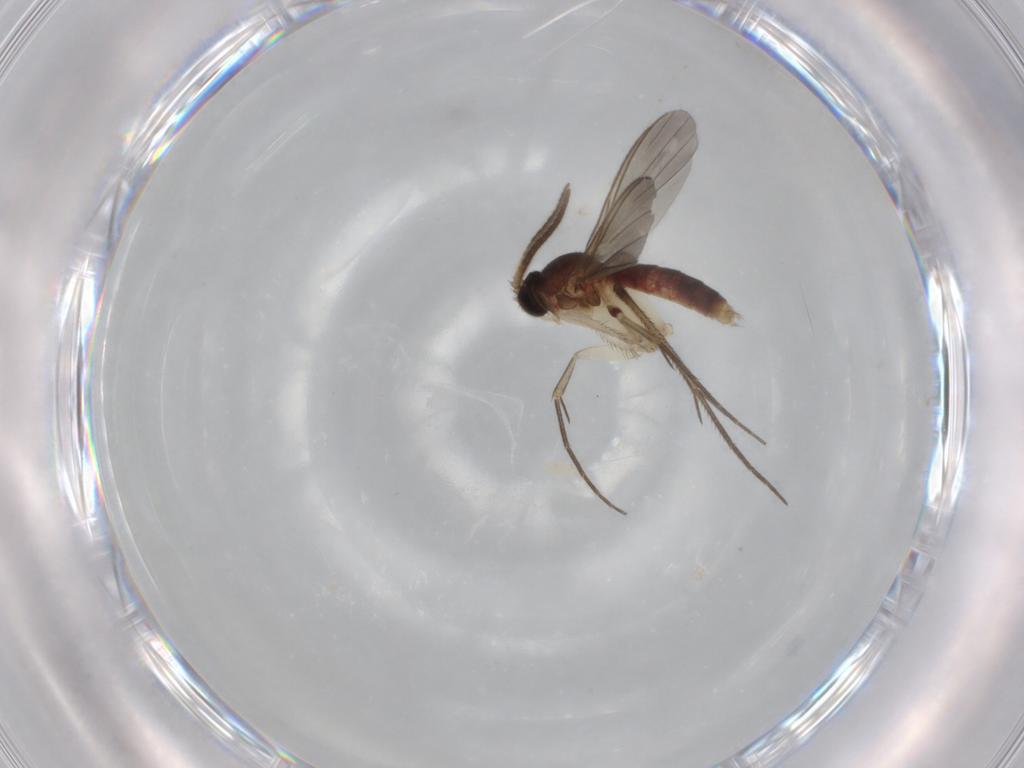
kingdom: Animalia
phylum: Arthropoda
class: Insecta
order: Diptera
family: Mycetophilidae
